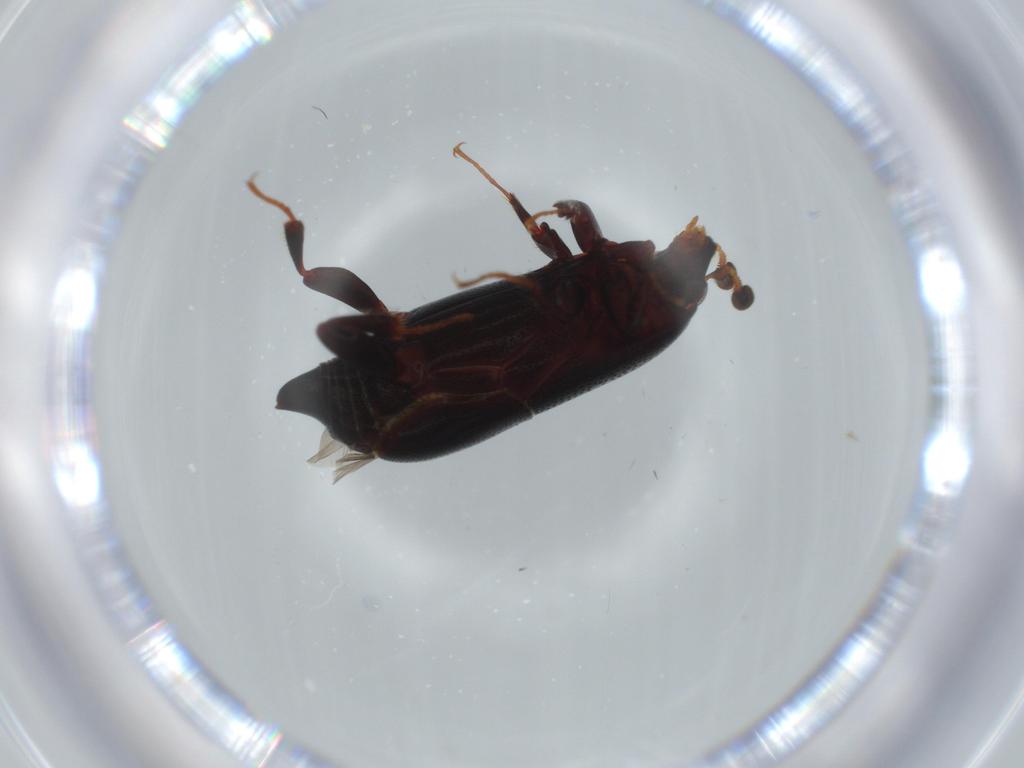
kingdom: Animalia
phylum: Arthropoda
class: Insecta
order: Coleoptera
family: Histeridae
